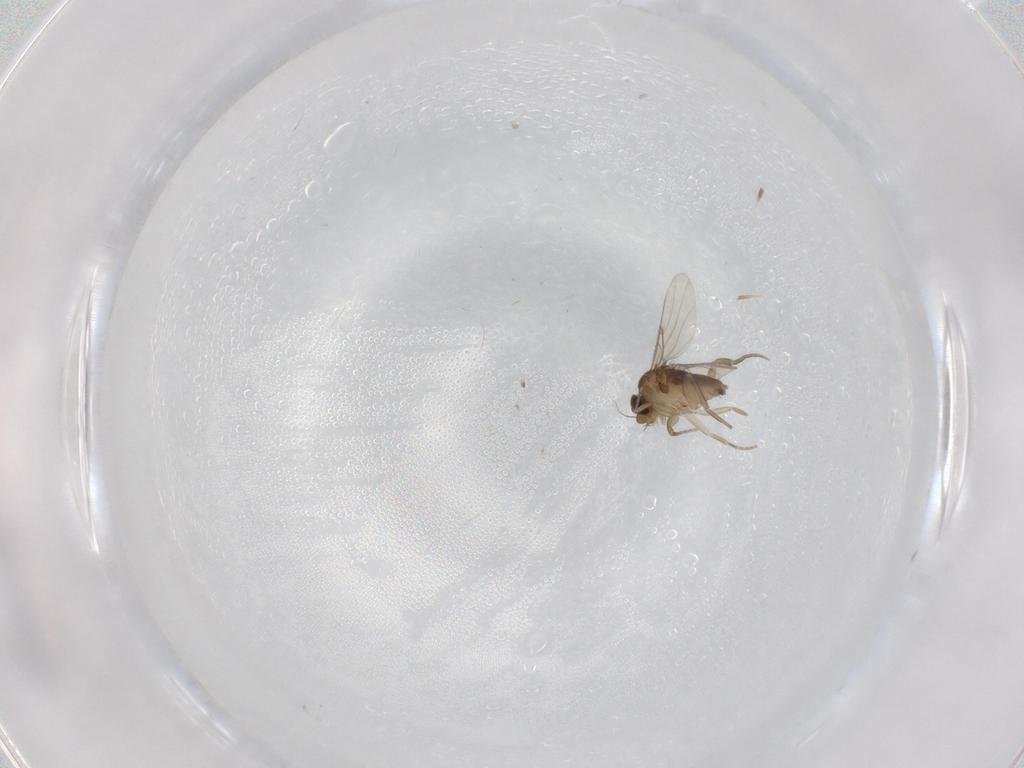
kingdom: Animalia
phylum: Arthropoda
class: Insecta
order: Diptera
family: Phoridae
